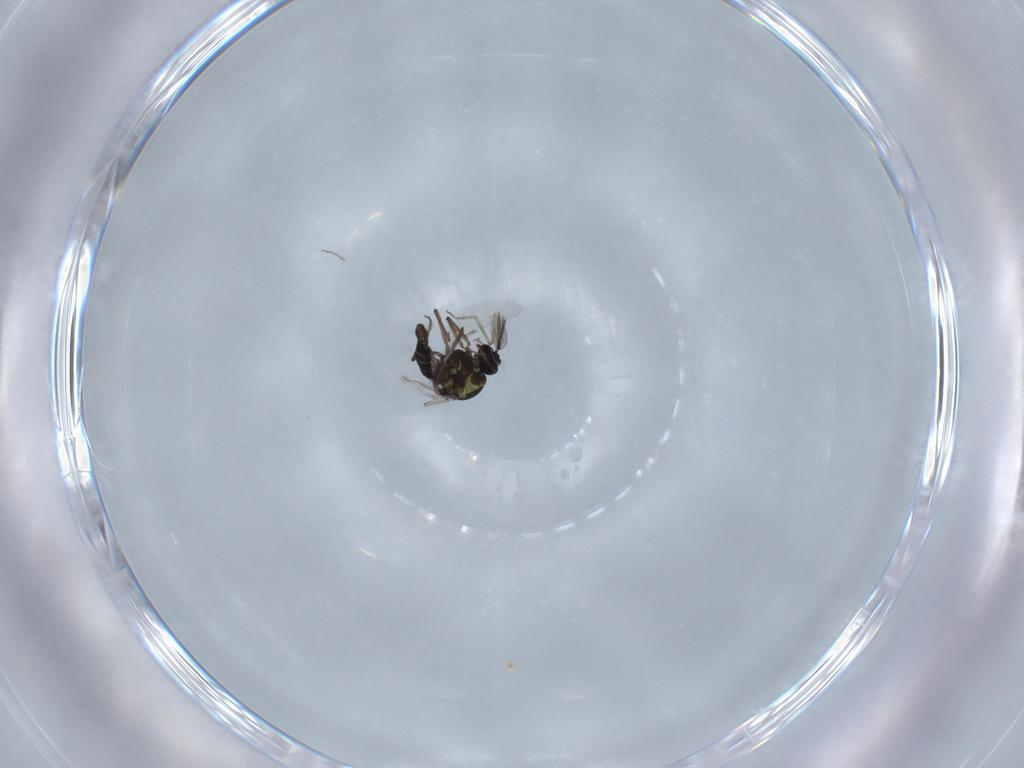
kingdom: Animalia
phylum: Arthropoda
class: Insecta
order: Diptera
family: Ceratopogonidae
